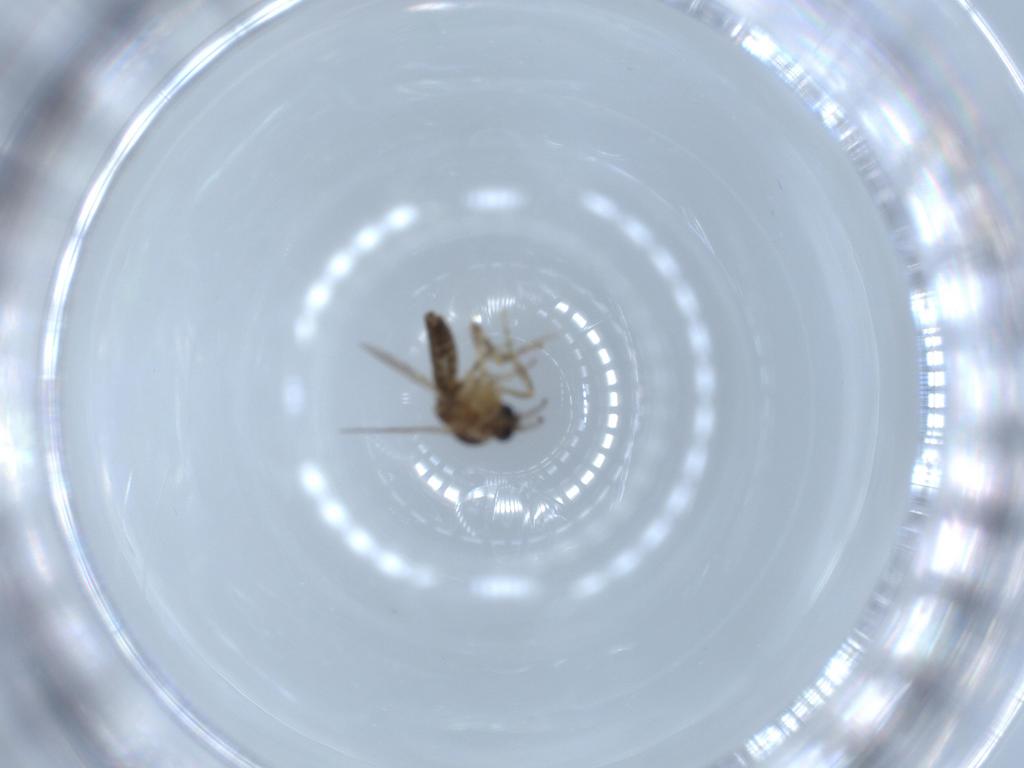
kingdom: Animalia
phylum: Arthropoda
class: Insecta
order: Diptera
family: Ceratopogonidae
